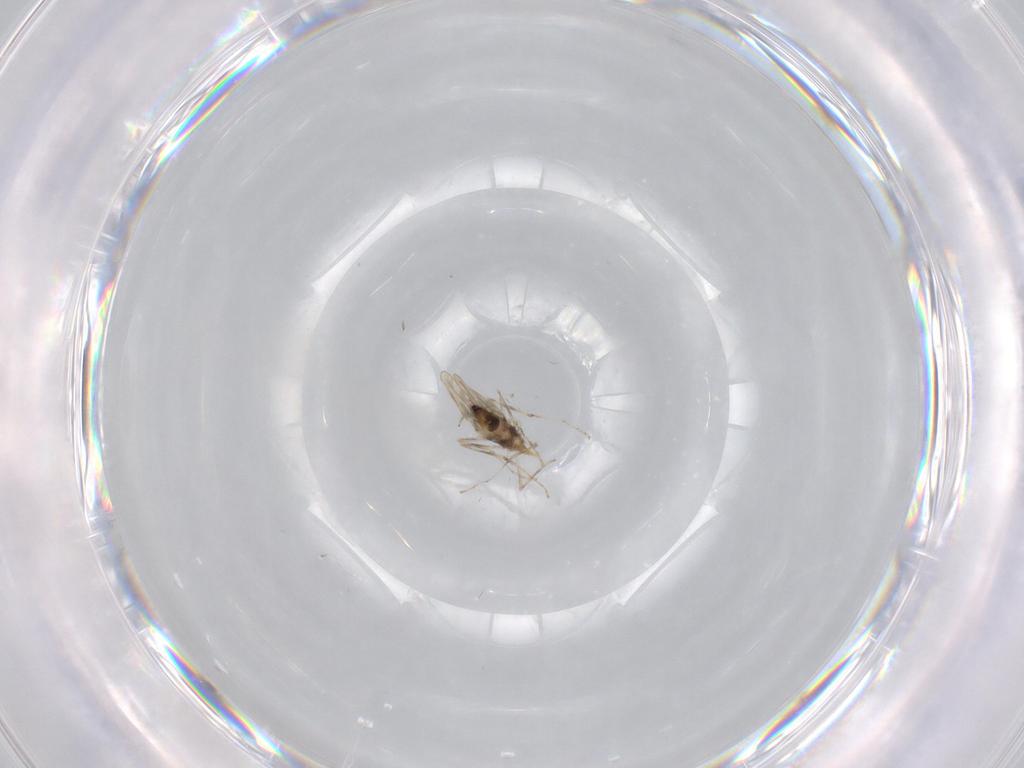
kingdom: Animalia
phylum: Arthropoda
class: Insecta
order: Diptera
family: Cecidomyiidae
